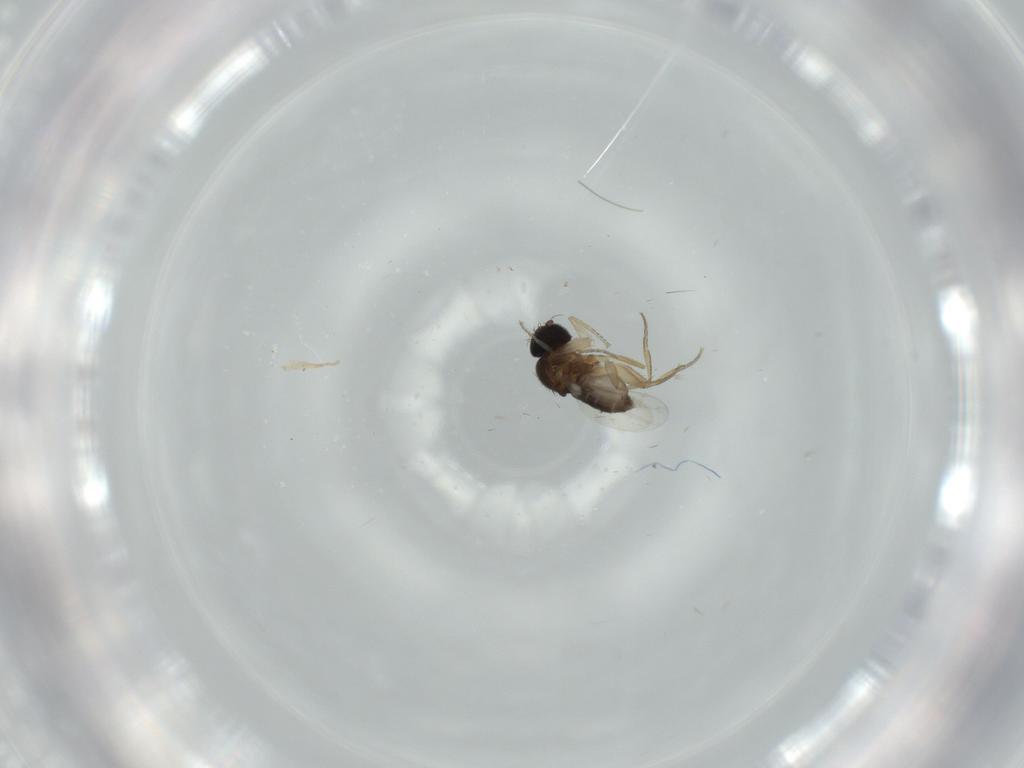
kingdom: Animalia
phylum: Arthropoda
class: Insecta
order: Diptera
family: Phoridae
